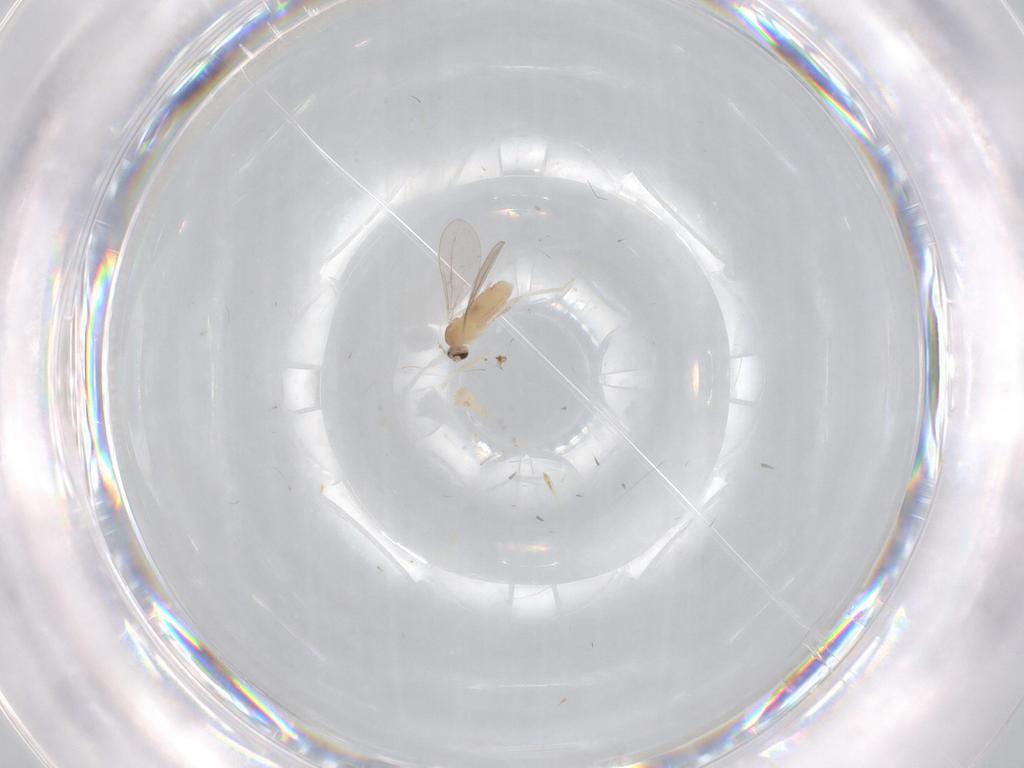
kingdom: Animalia
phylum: Arthropoda
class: Insecta
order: Diptera
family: Cecidomyiidae
